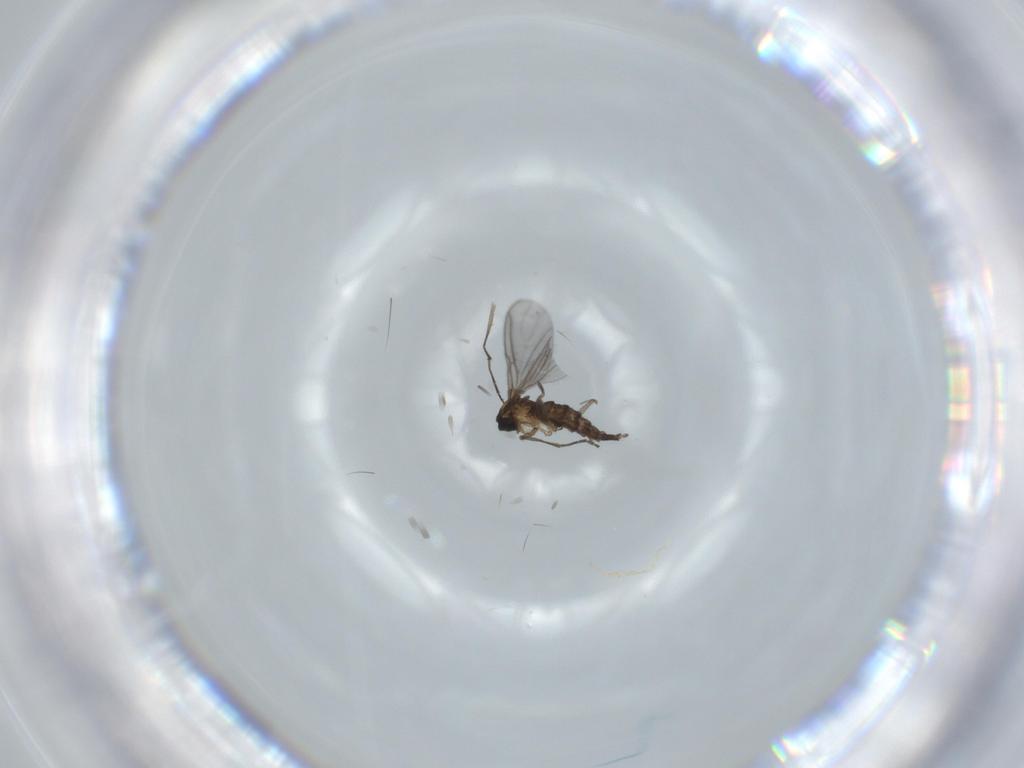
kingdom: Animalia
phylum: Arthropoda
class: Insecta
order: Diptera
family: Sciaridae
